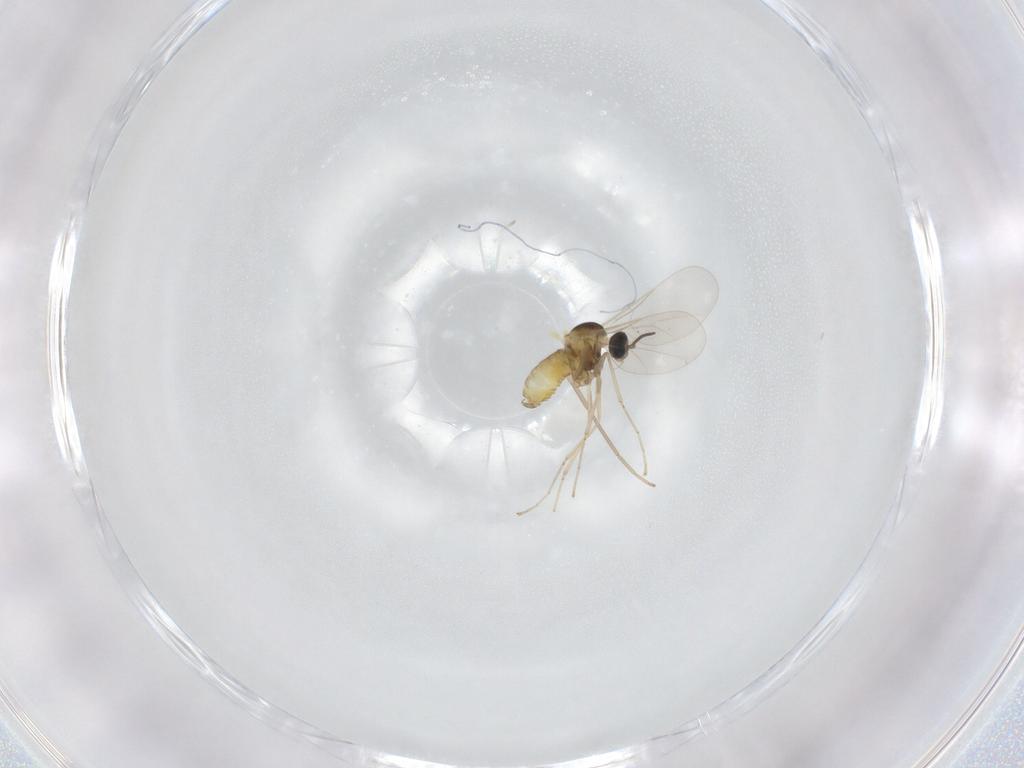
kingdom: Animalia
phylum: Arthropoda
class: Insecta
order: Diptera
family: Cecidomyiidae
